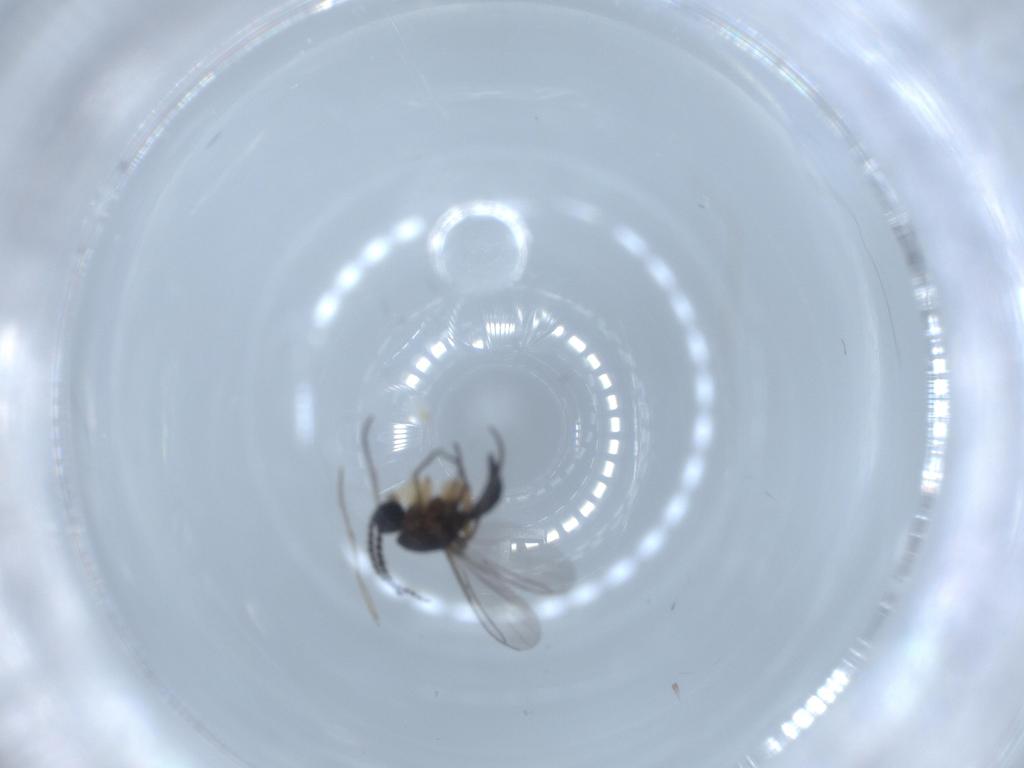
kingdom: Animalia
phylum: Arthropoda
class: Insecta
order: Diptera
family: Sciaridae
